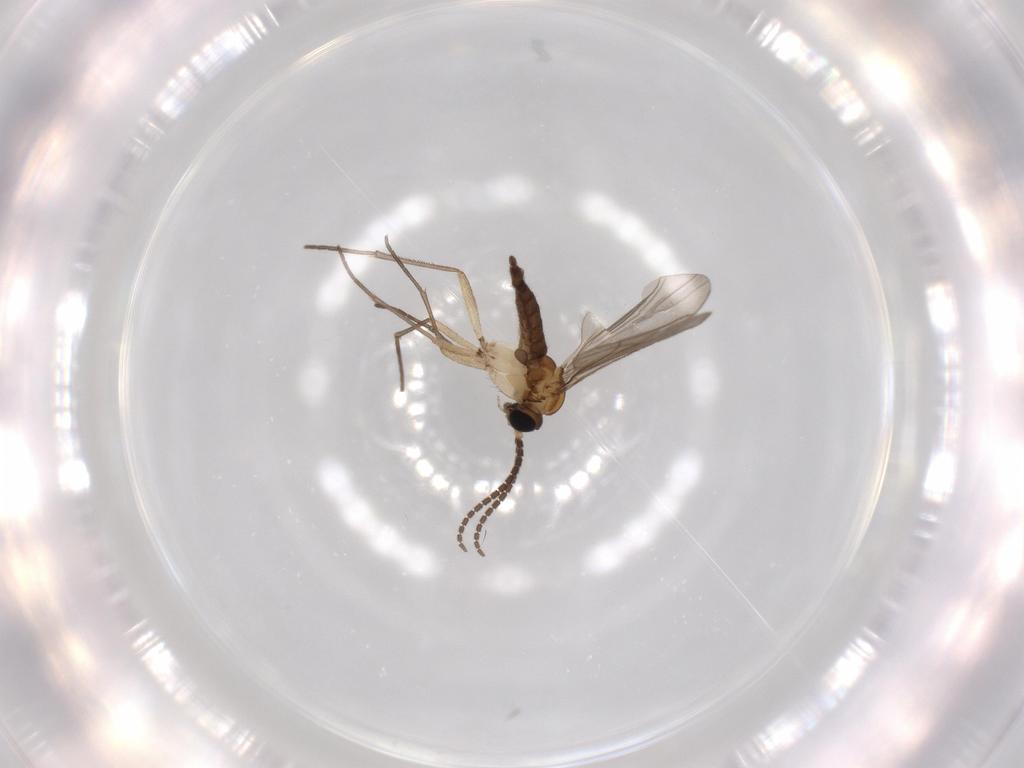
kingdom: Animalia
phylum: Arthropoda
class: Insecta
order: Diptera
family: Sciaridae
